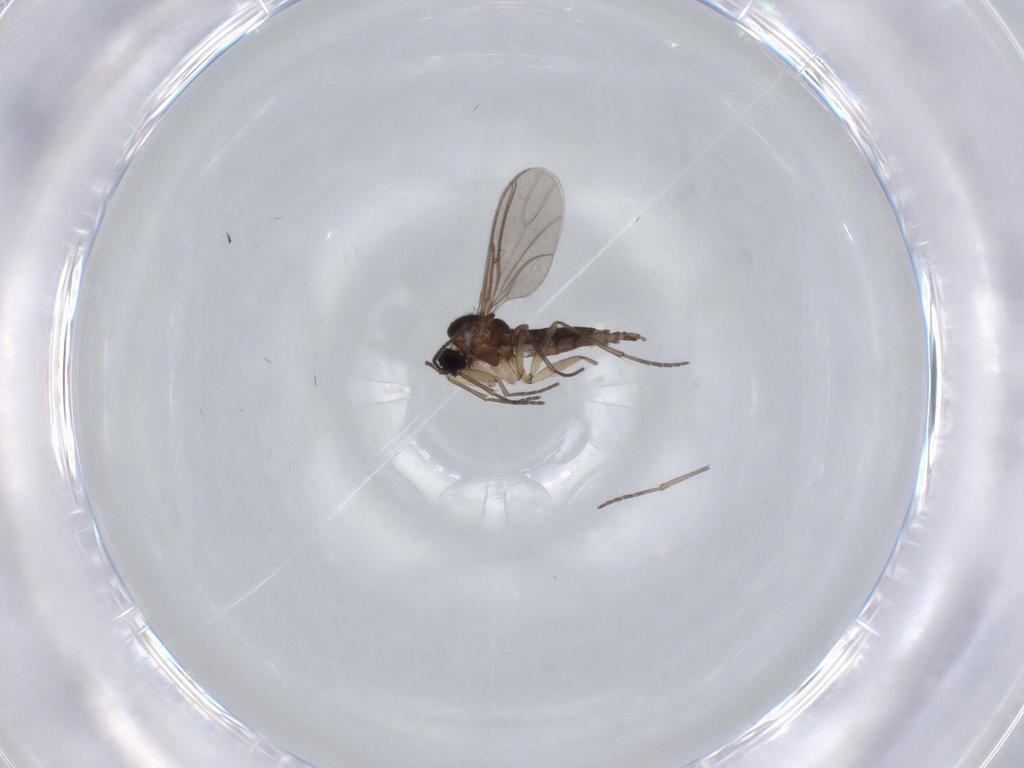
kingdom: Animalia
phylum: Arthropoda
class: Insecta
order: Diptera
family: Sciaridae
